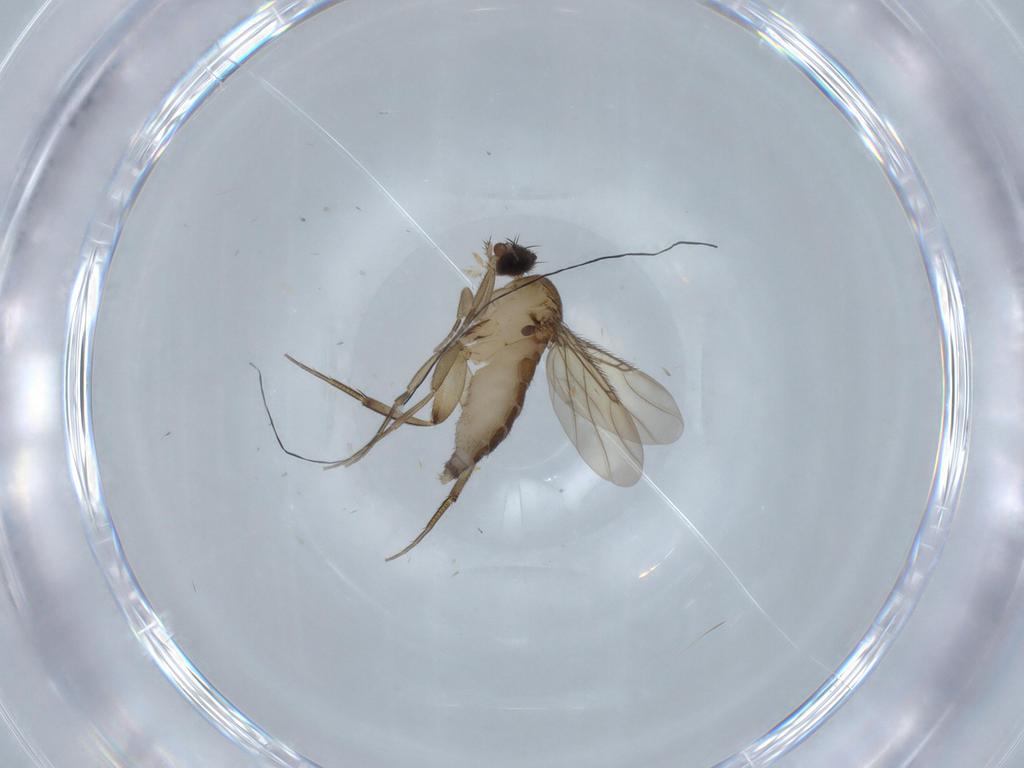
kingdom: Animalia
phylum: Arthropoda
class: Insecta
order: Diptera
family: Phoridae
